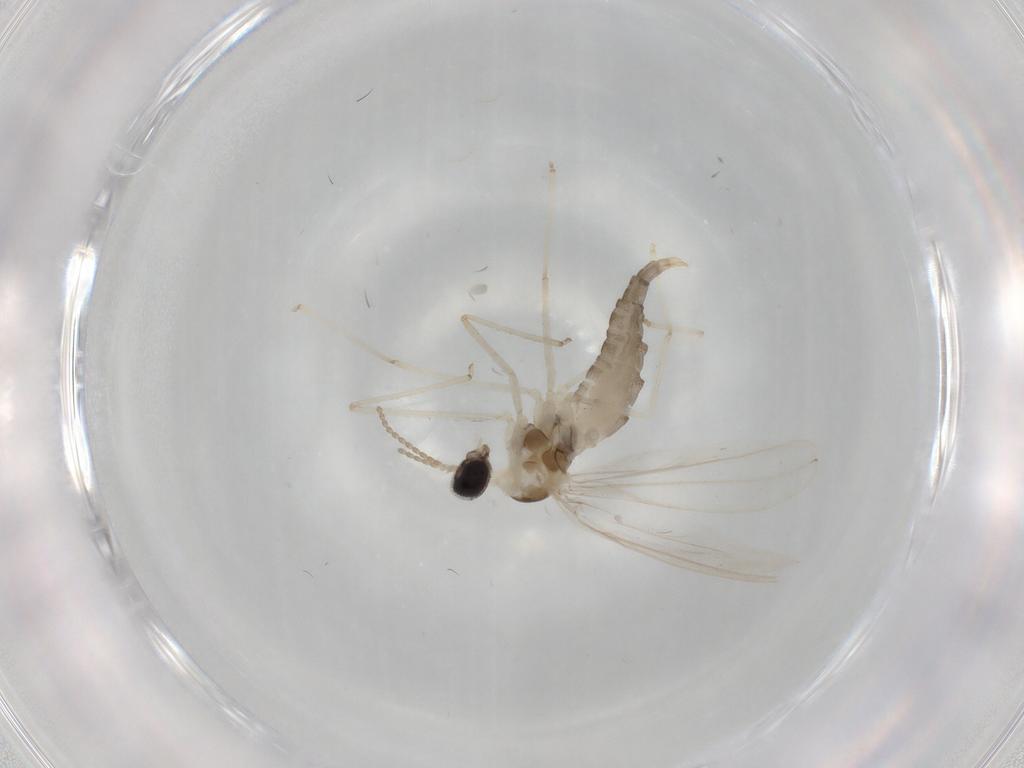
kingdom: Animalia
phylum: Arthropoda
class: Insecta
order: Diptera
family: Cecidomyiidae
